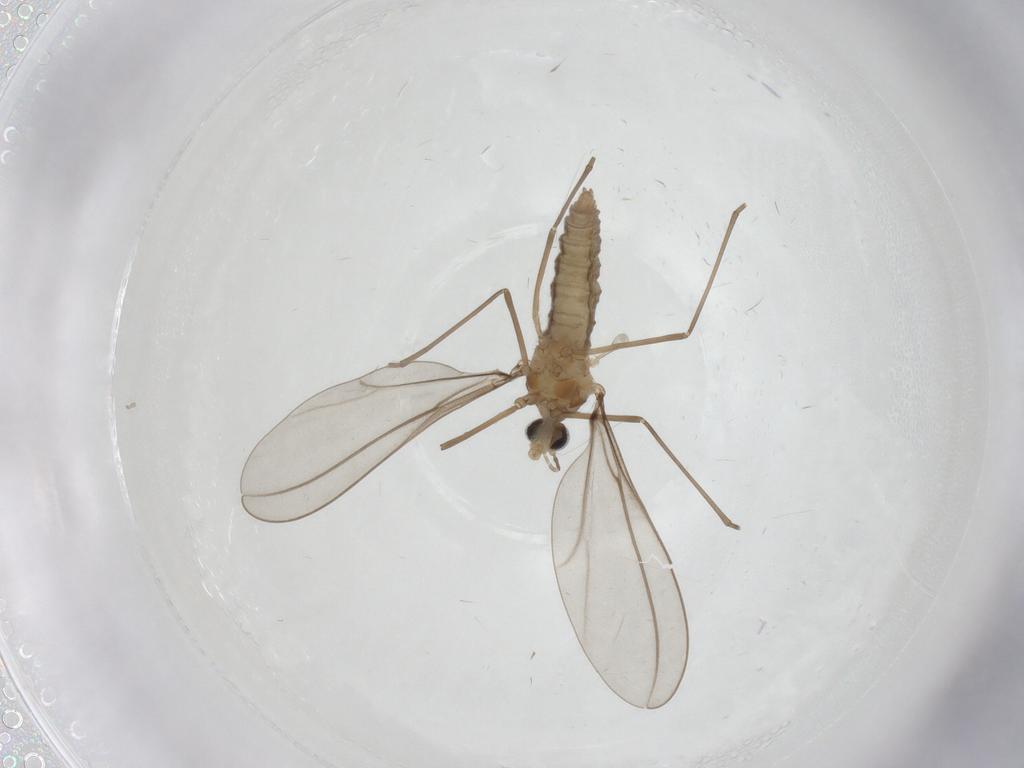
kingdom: Animalia
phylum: Arthropoda
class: Insecta
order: Diptera
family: Cecidomyiidae
